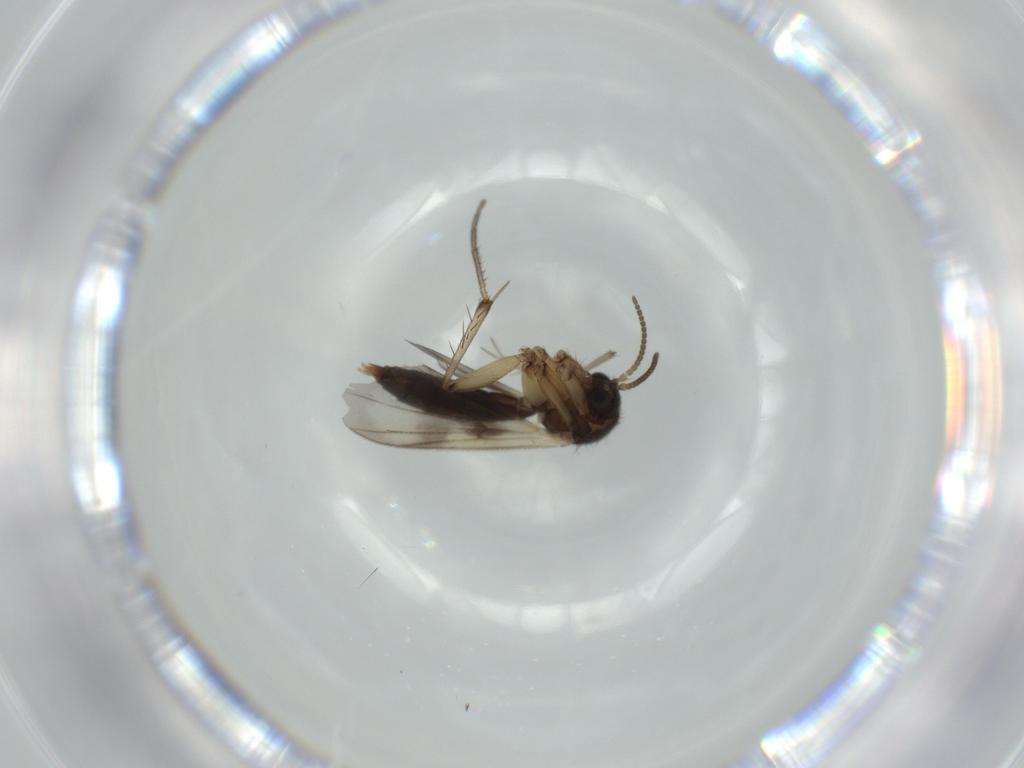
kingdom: Animalia
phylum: Arthropoda
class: Insecta
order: Diptera
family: Mycetophilidae
